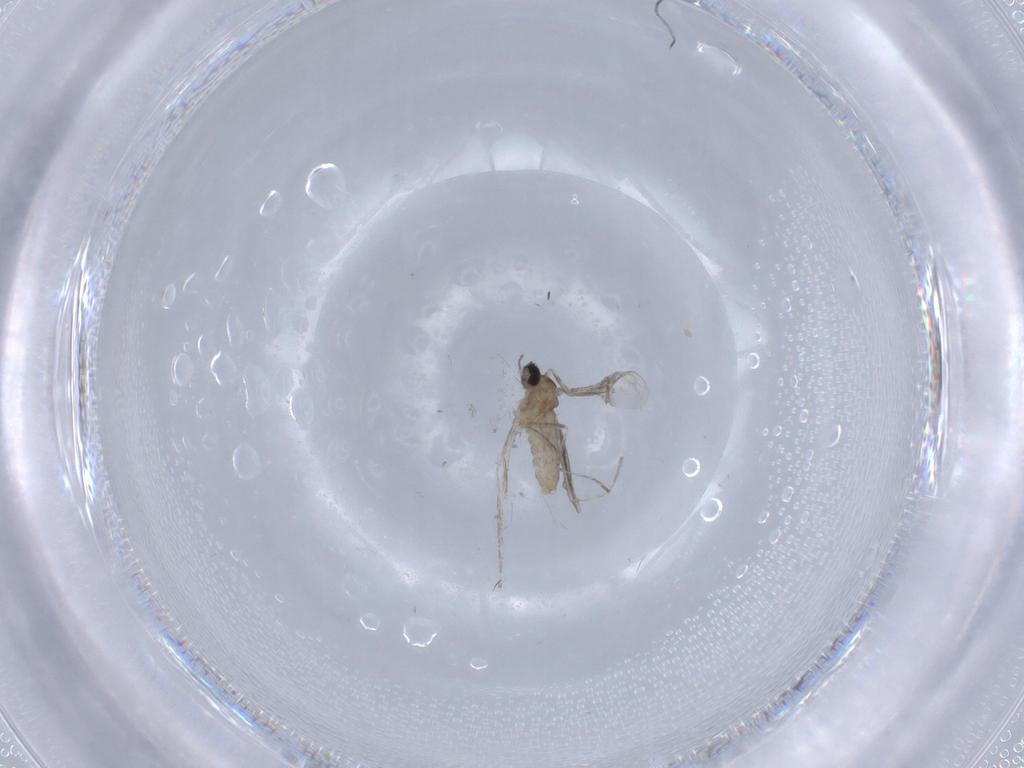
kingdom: Animalia
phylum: Arthropoda
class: Insecta
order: Diptera
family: Cecidomyiidae
